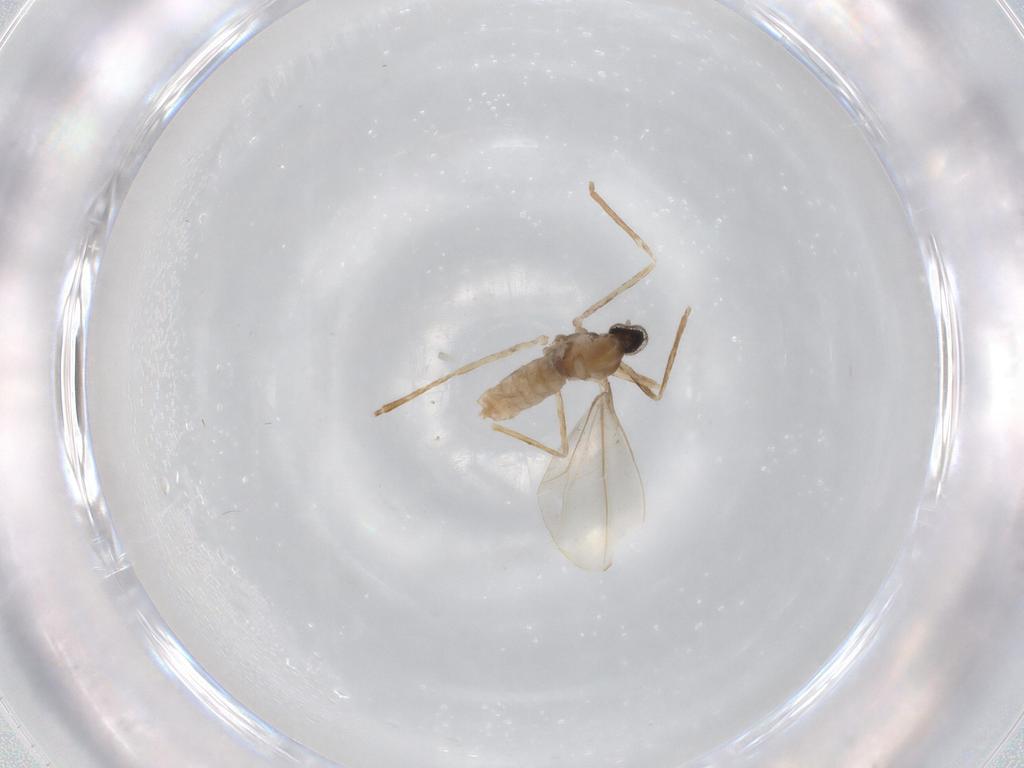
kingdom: Animalia
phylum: Arthropoda
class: Insecta
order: Diptera
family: Cecidomyiidae
